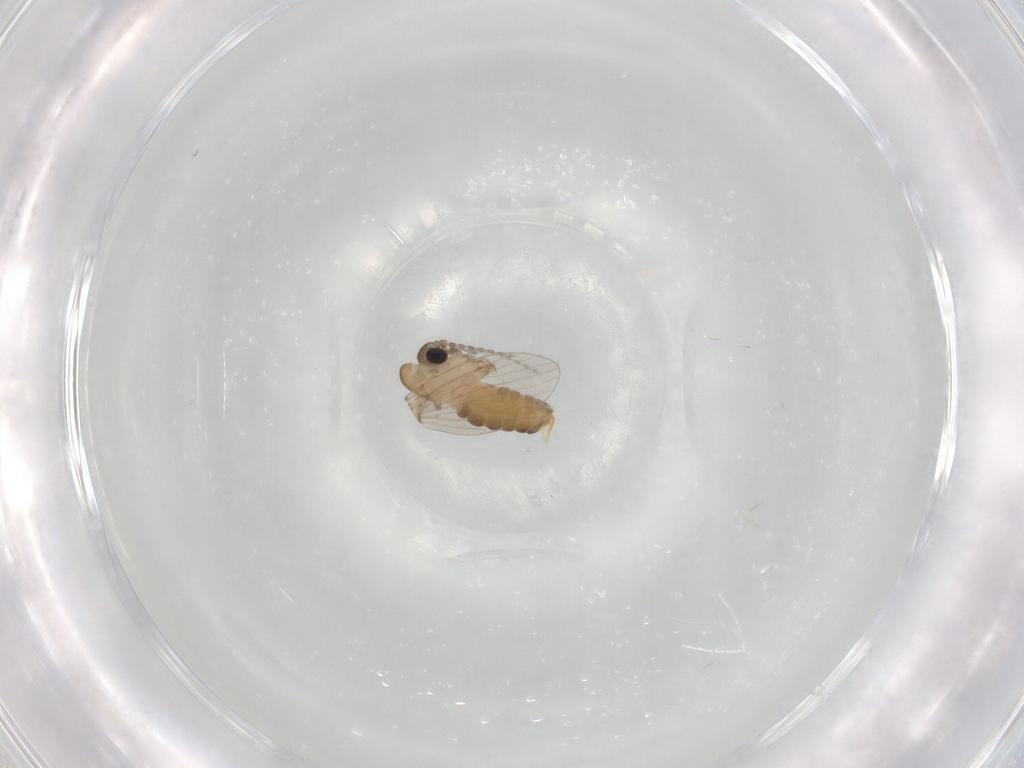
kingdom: Animalia
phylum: Arthropoda
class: Insecta
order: Diptera
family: Psychodidae
